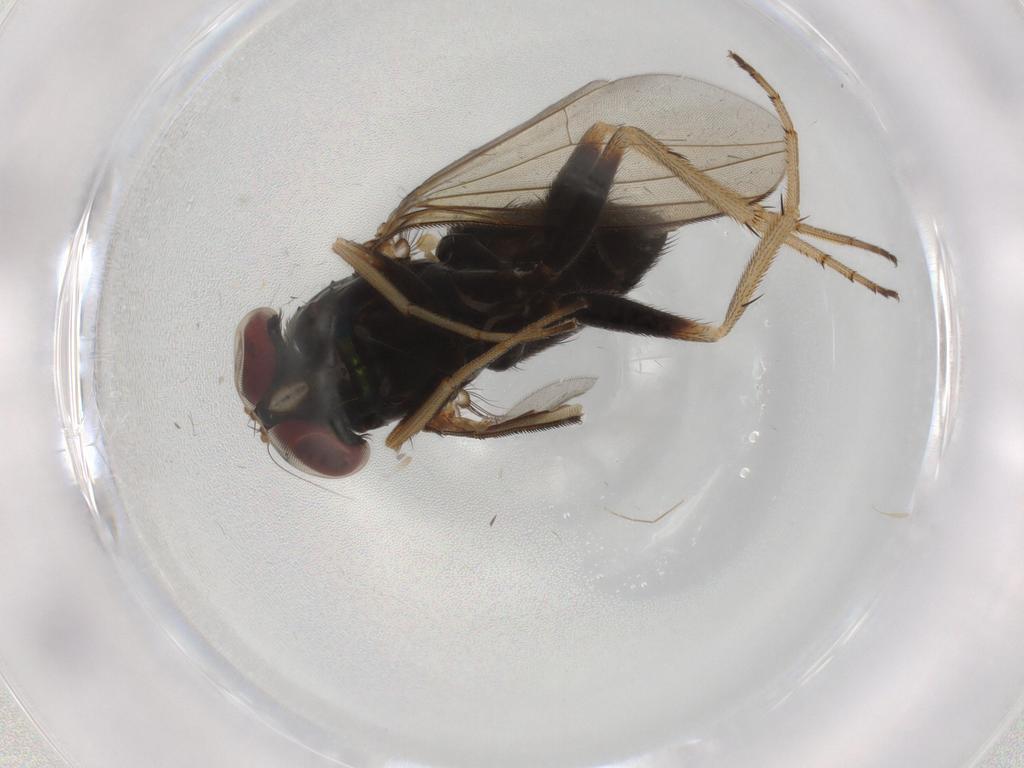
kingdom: Animalia
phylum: Arthropoda
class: Insecta
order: Diptera
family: Dolichopodidae
